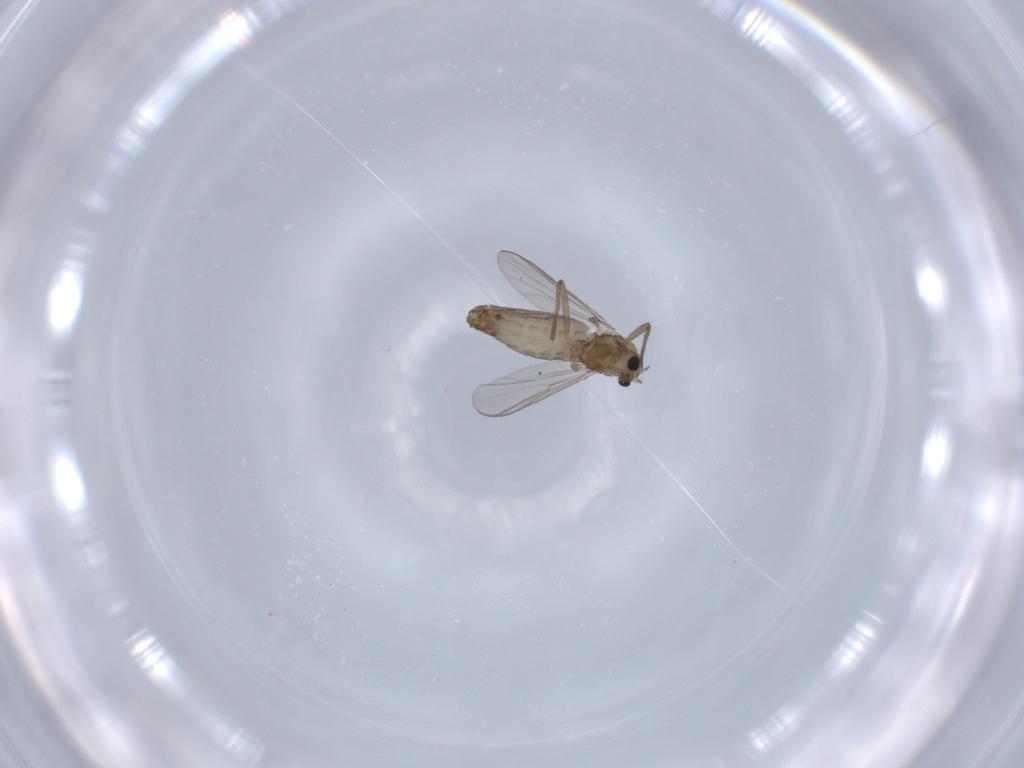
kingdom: Animalia
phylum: Arthropoda
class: Insecta
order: Diptera
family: Chironomidae
